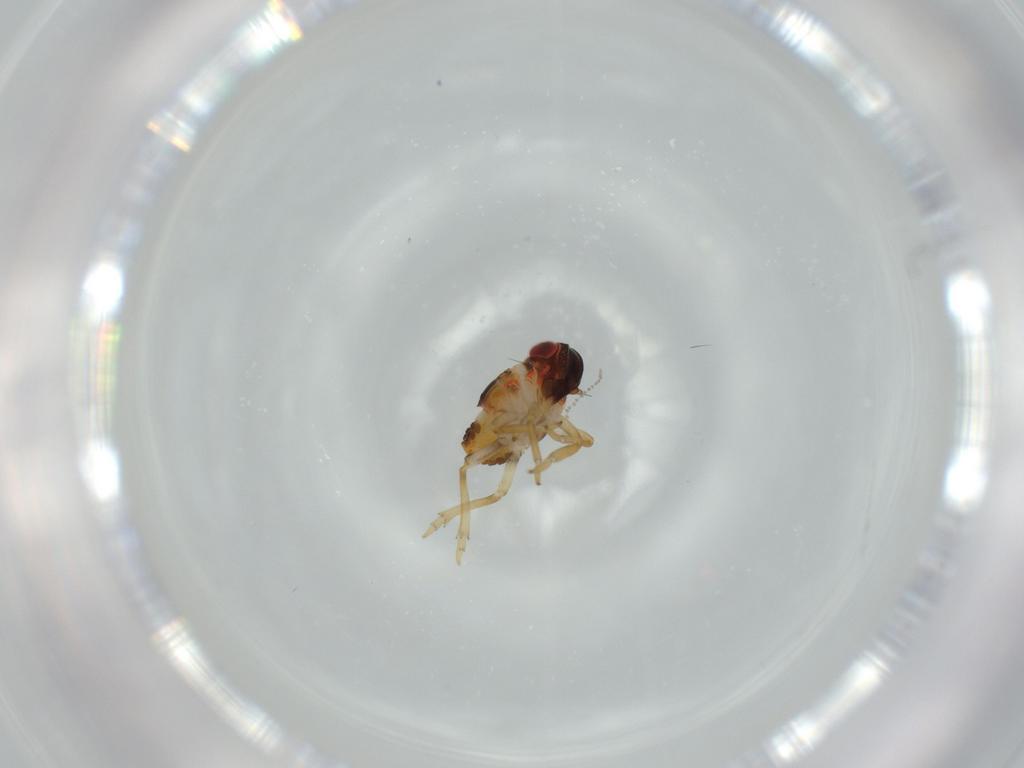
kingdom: Animalia
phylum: Arthropoda
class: Insecta
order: Hemiptera
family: Issidae
